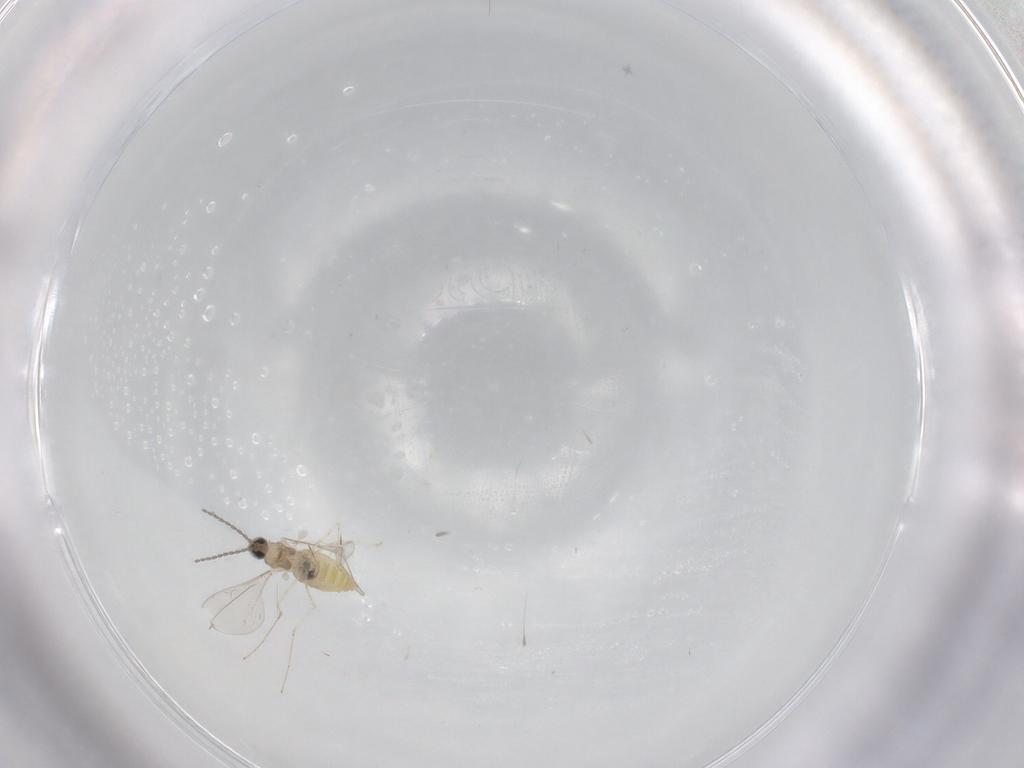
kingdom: Animalia
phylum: Arthropoda
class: Insecta
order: Diptera
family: Cecidomyiidae
